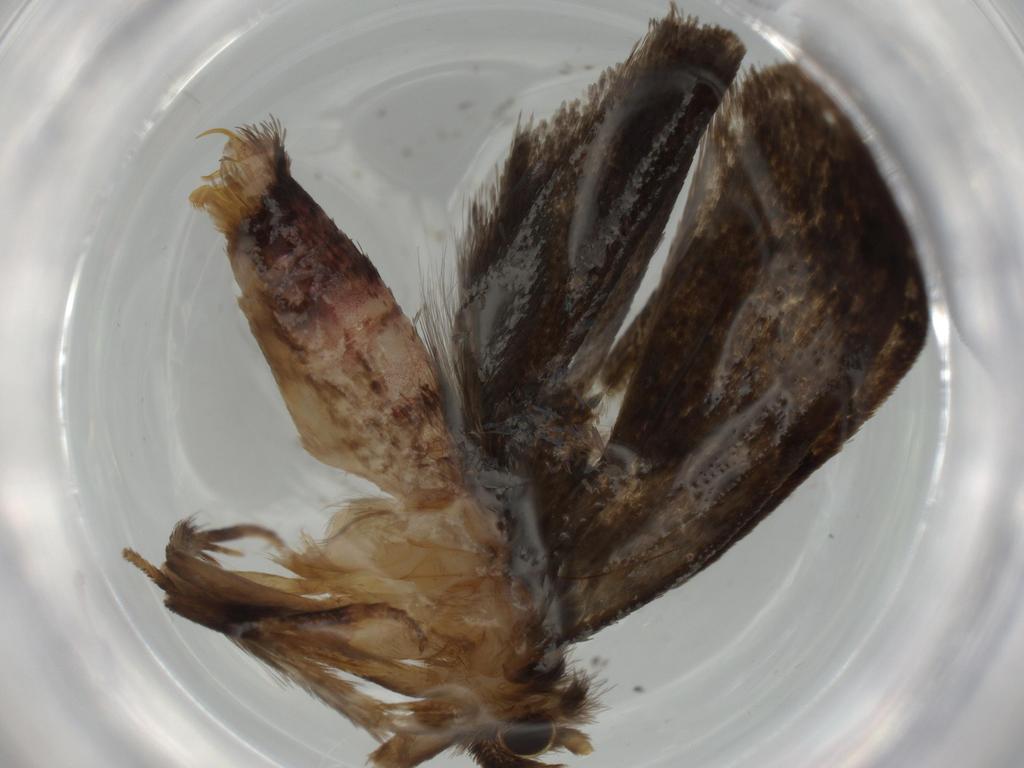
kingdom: Animalia
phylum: Arthropoda
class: Insecta
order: Lepidoptera
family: Tineidae
